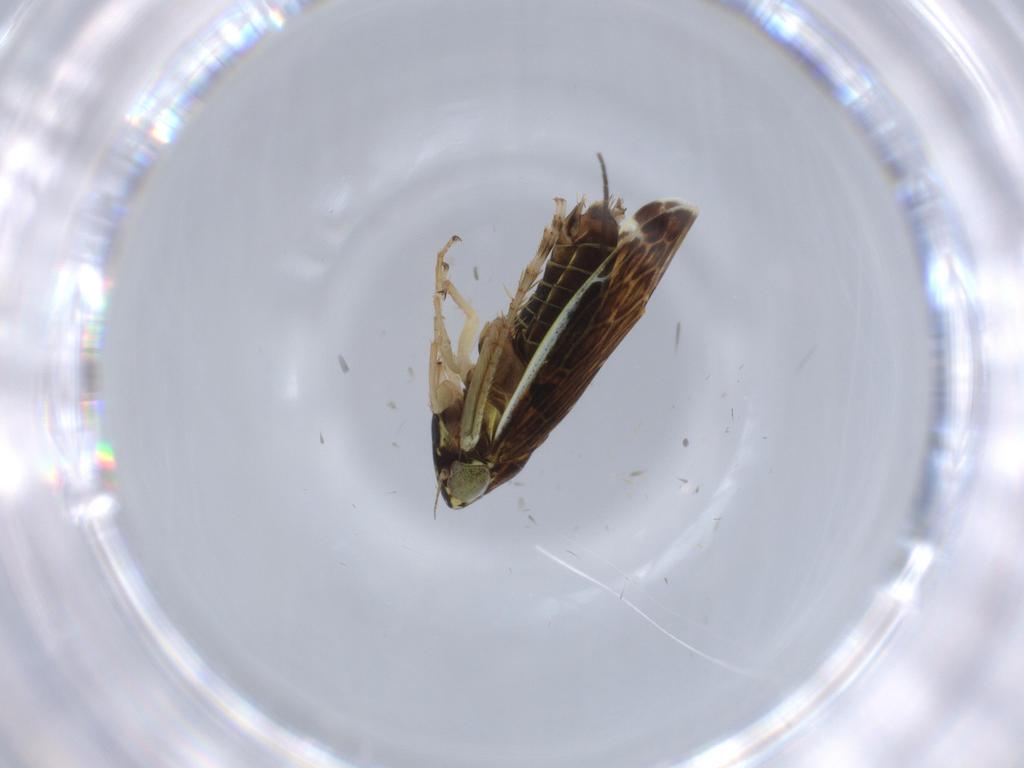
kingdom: Animalia
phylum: Arthropoda
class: Insecta
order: Hemiptera
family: Cicadellidae
